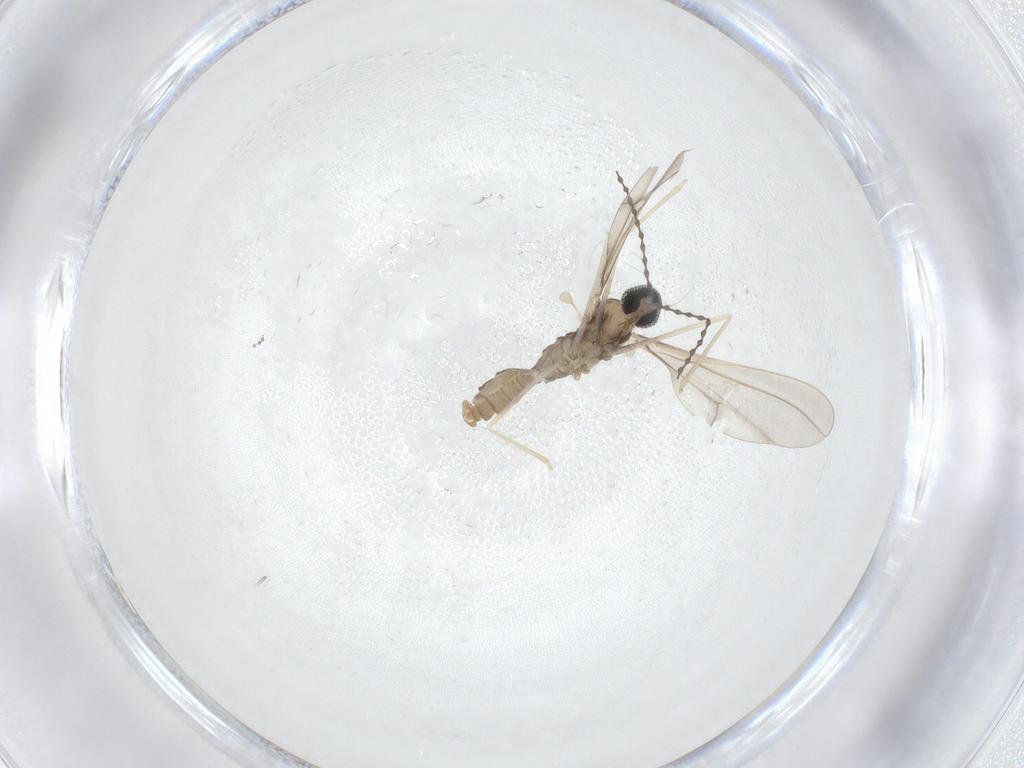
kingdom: Animalia
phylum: Arthropoda
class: Insecta
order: Diptera
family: Cecidomyiidae
